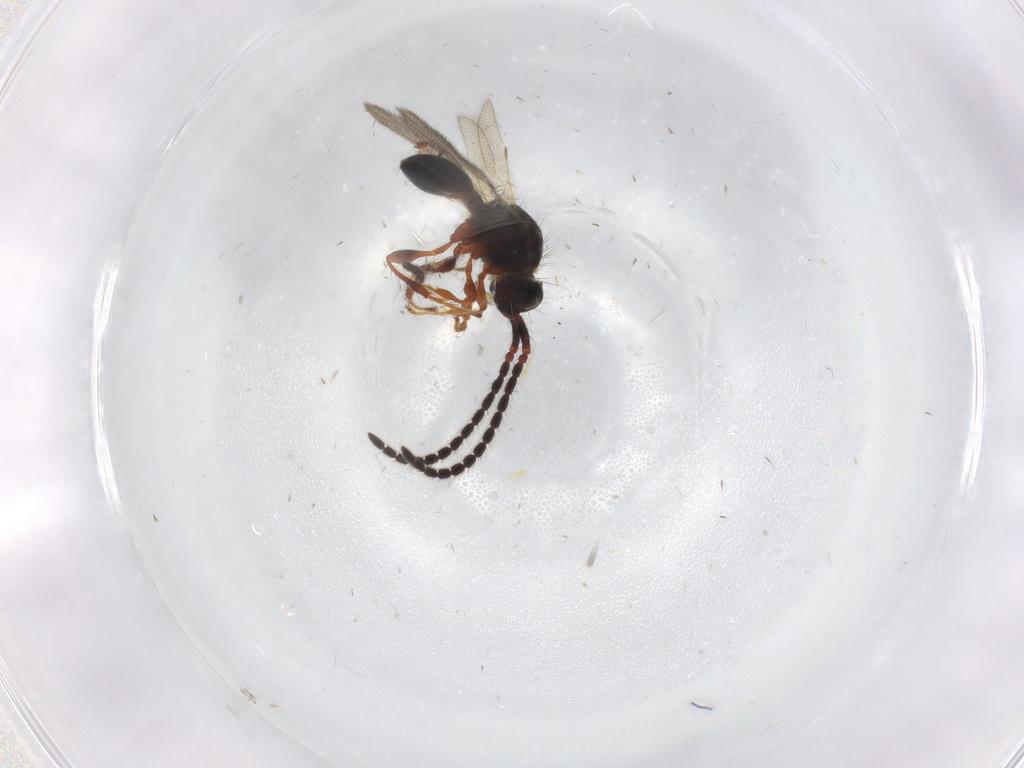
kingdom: Animalia
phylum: Arthropoda
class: Insecta
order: Hymenoptera
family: Diapriidae
